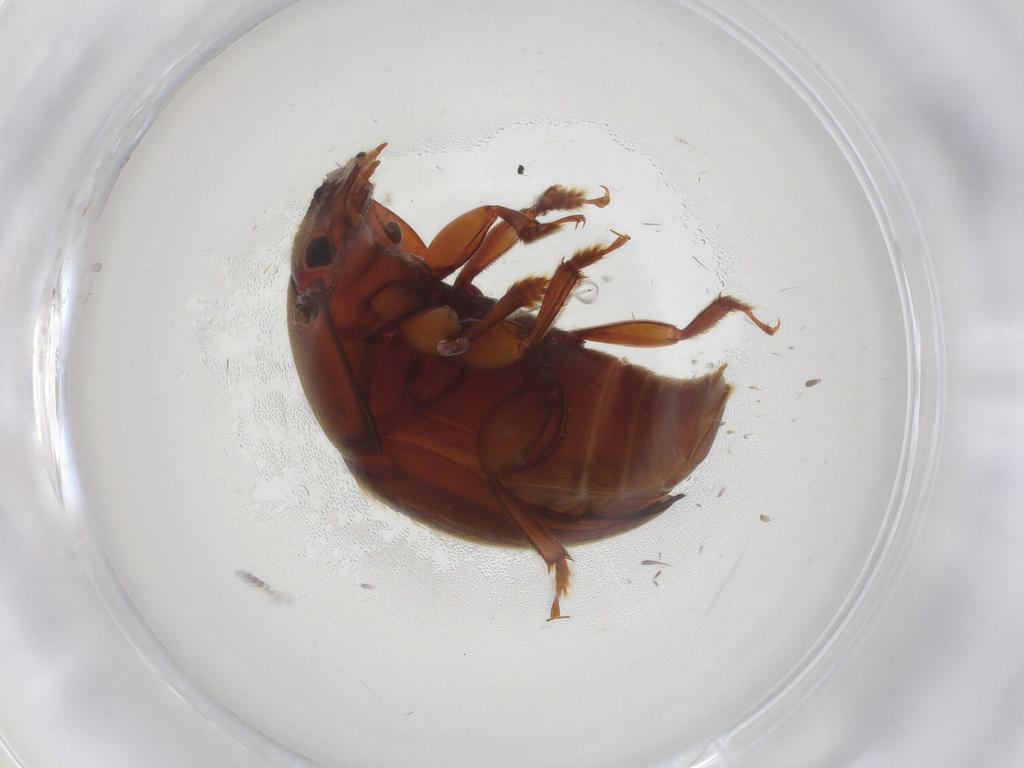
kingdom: Animalia
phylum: Arthropoda
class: Insecta
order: Coleoptera
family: Nitidulidae
